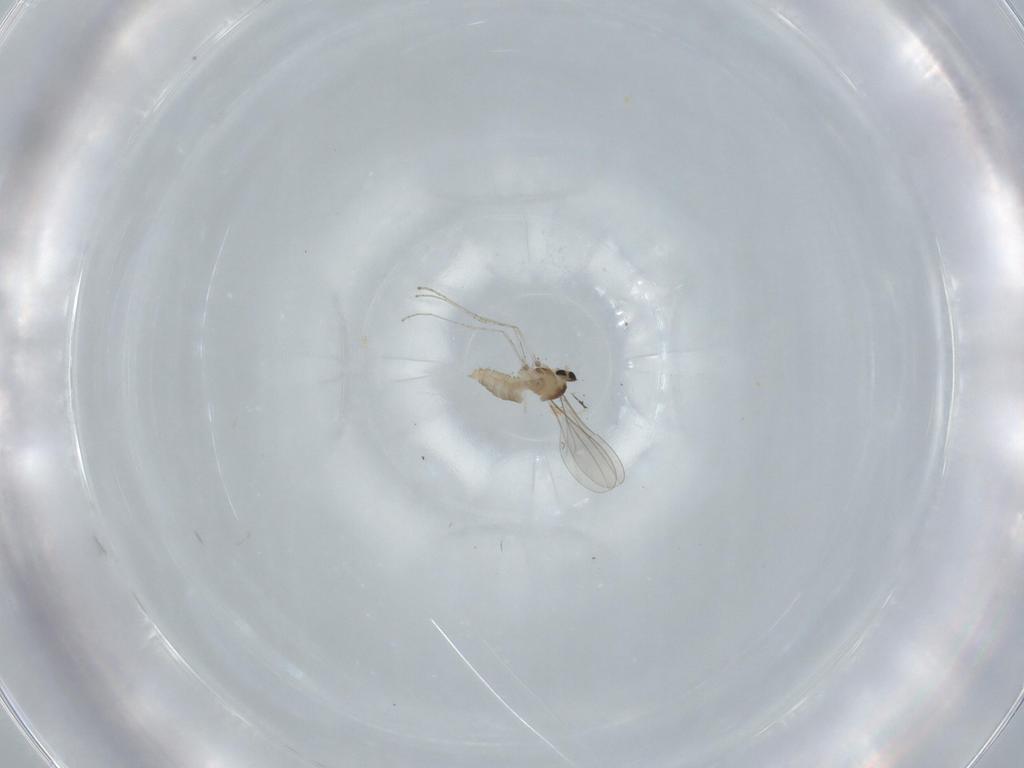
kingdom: Animalia
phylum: Arthropoda
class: Insecta
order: Diptera
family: Cecidomyiidae
